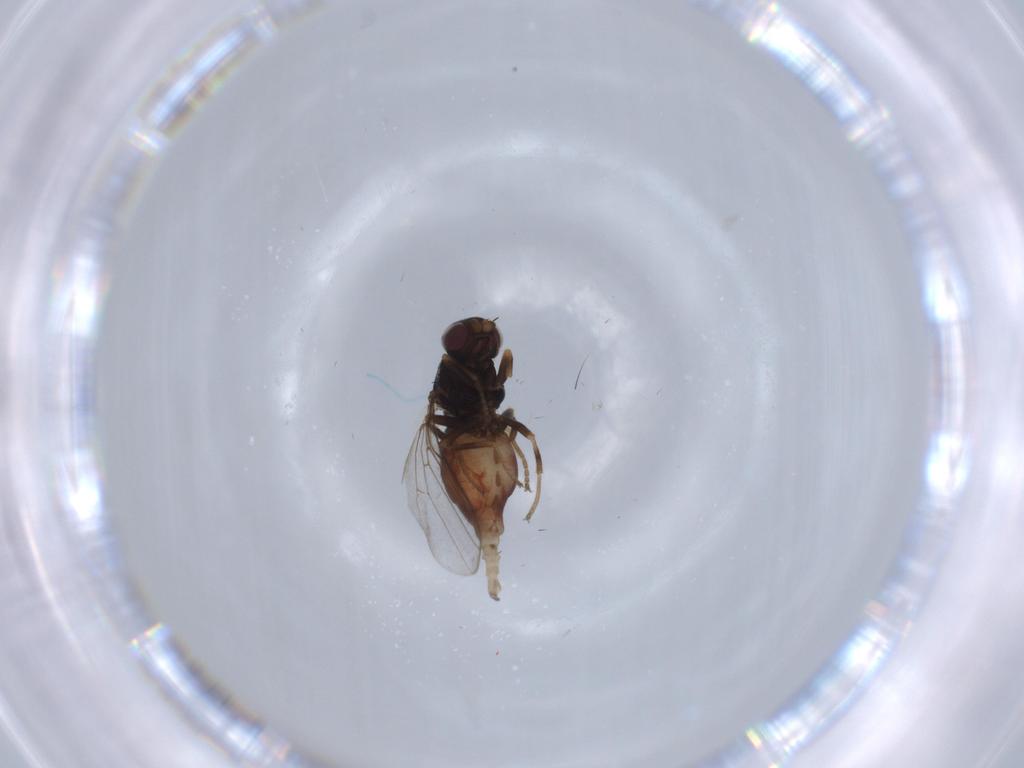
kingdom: Animalia
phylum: Arthropoda
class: Insecta
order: Diptera
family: Chloropidae
